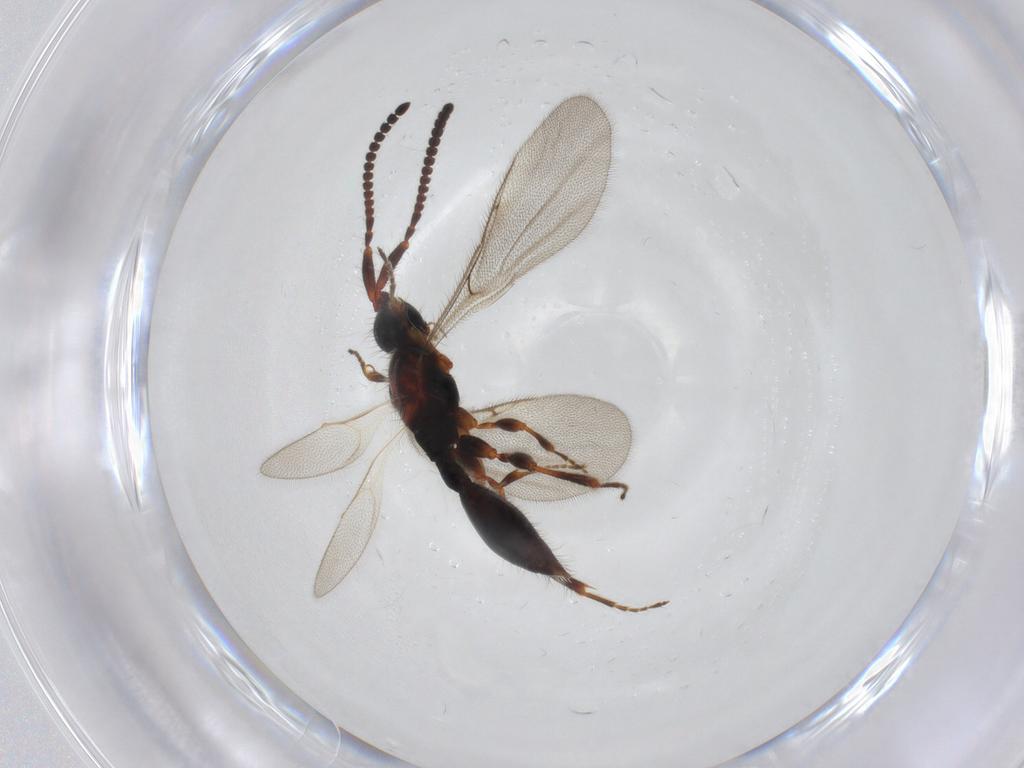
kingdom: Animalia
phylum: Arthropoda
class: Insecta
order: Hymenoptera
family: Diapriidae
